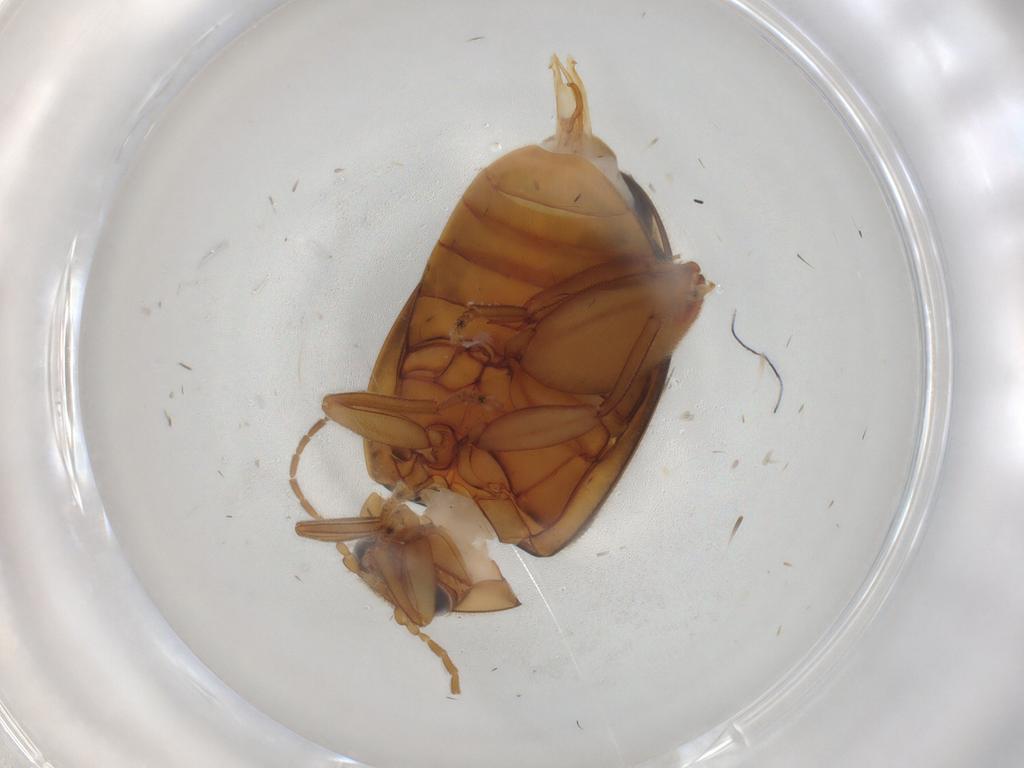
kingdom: Animalia
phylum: Arthropoda
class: Insecta
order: Coleoptera
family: Scirtidae
